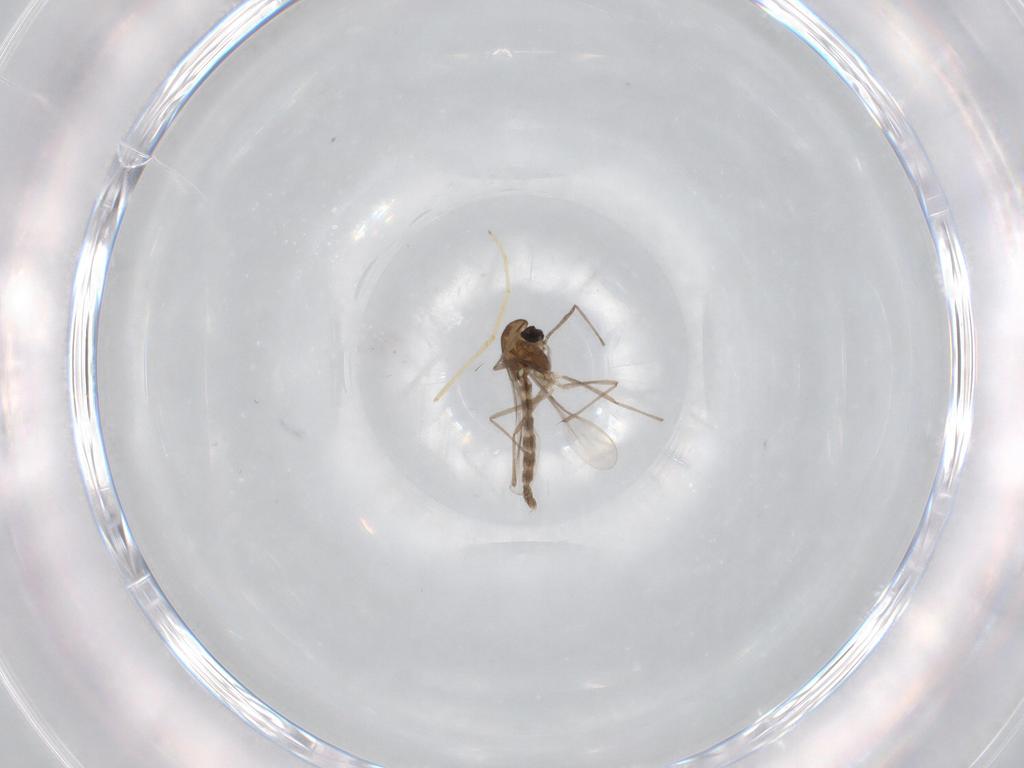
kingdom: Animalia
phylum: Arthropoda
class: Insecta
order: Diptera
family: Chironomidae
